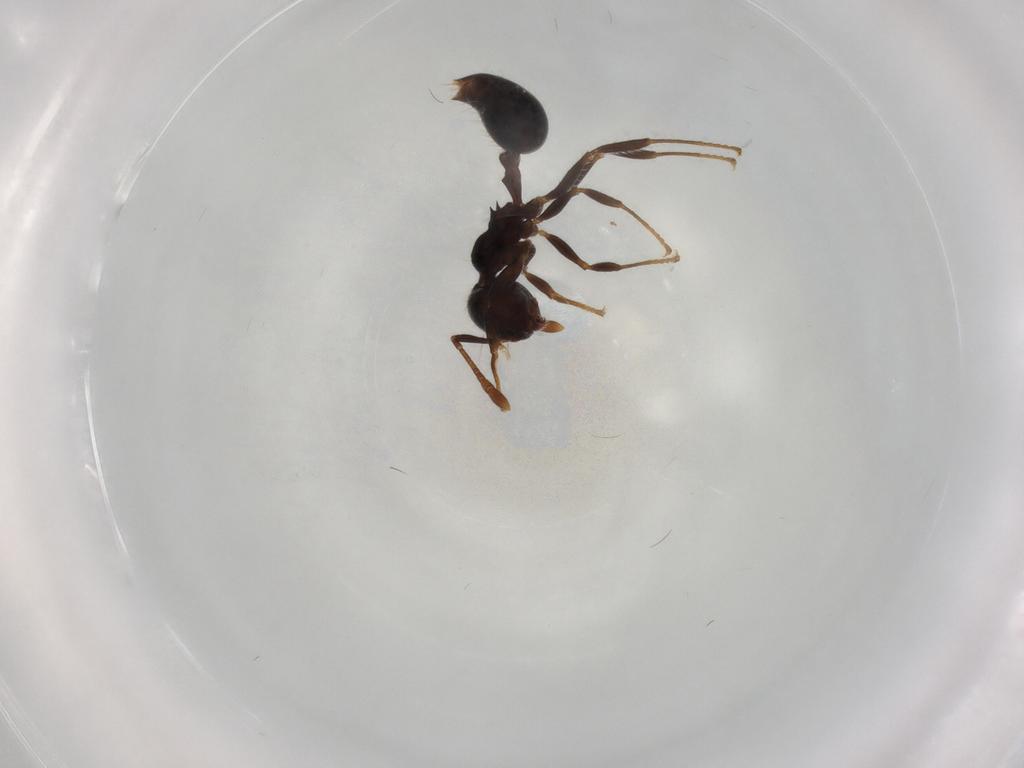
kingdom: Animalia
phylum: Arthropoda
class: Insecta
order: Hymenoptera
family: Formicidae
